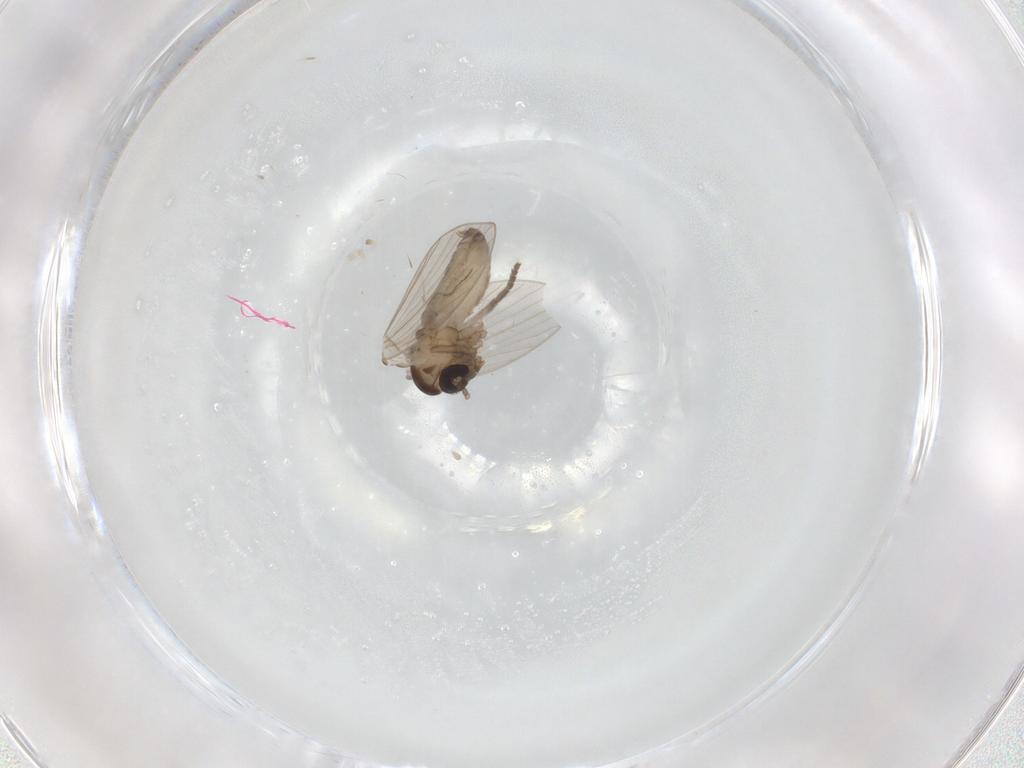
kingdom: Animalia
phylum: Arthropoda
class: Insecta
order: Diptera
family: Psychodidae
